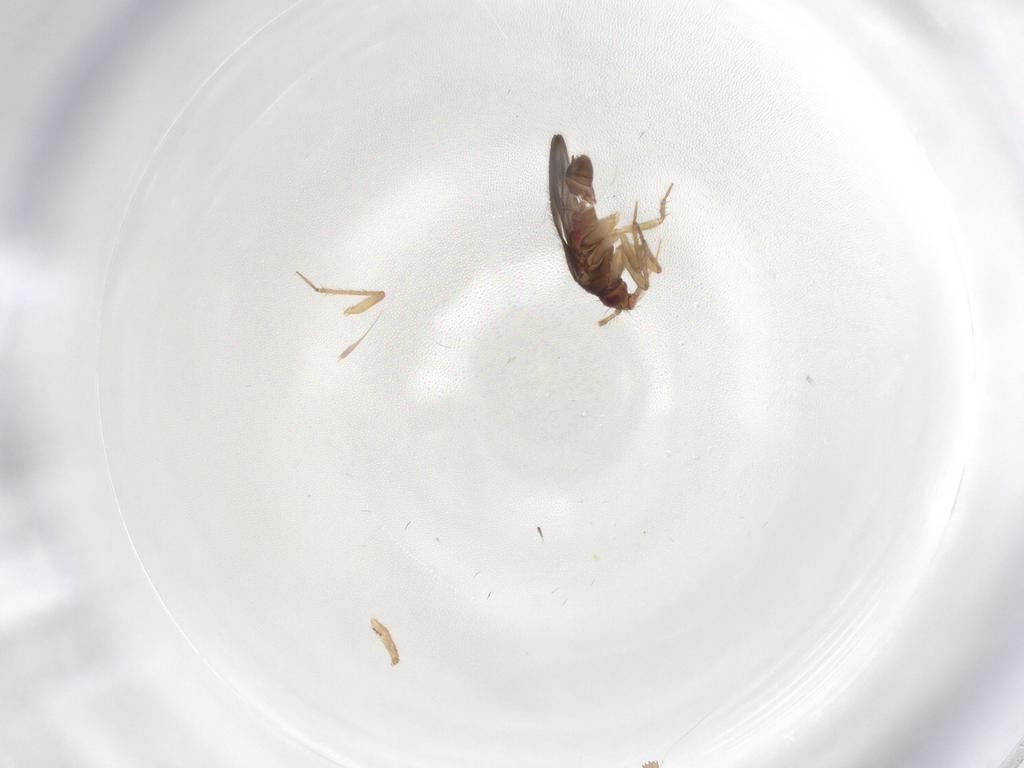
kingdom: Animalia
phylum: Arthropoda
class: Insecta
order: Hemiptera
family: Ceratocombidae
